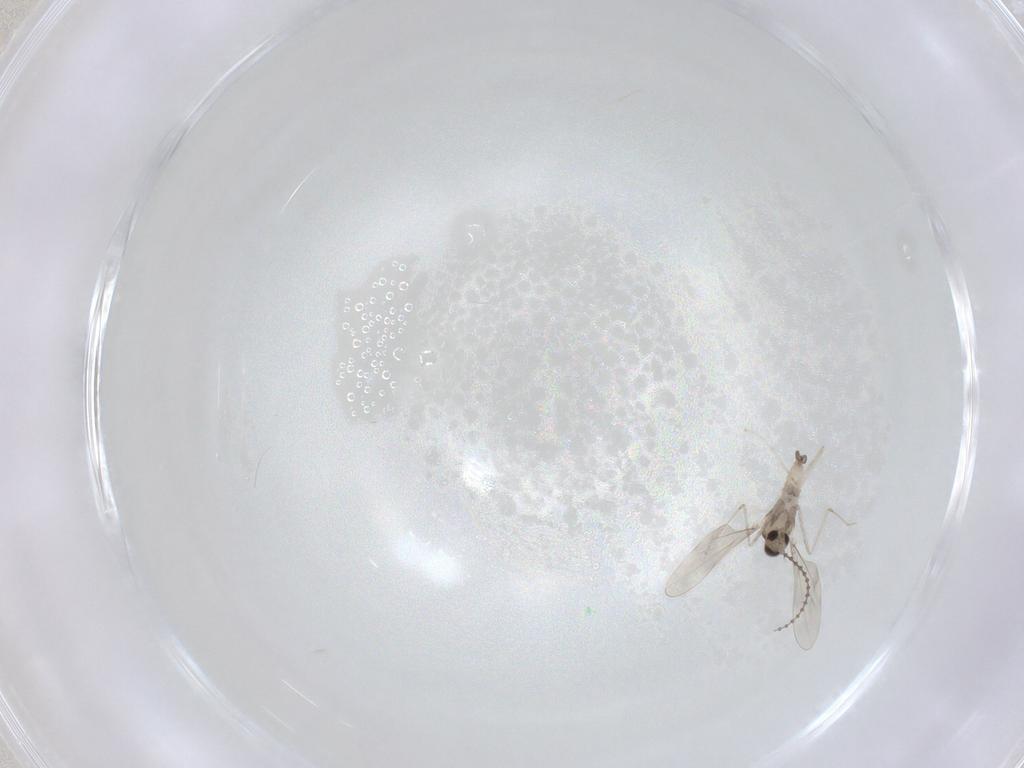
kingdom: Animalia
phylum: Arthropoda
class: Insecta
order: Diptera
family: Cecidomyiidae
